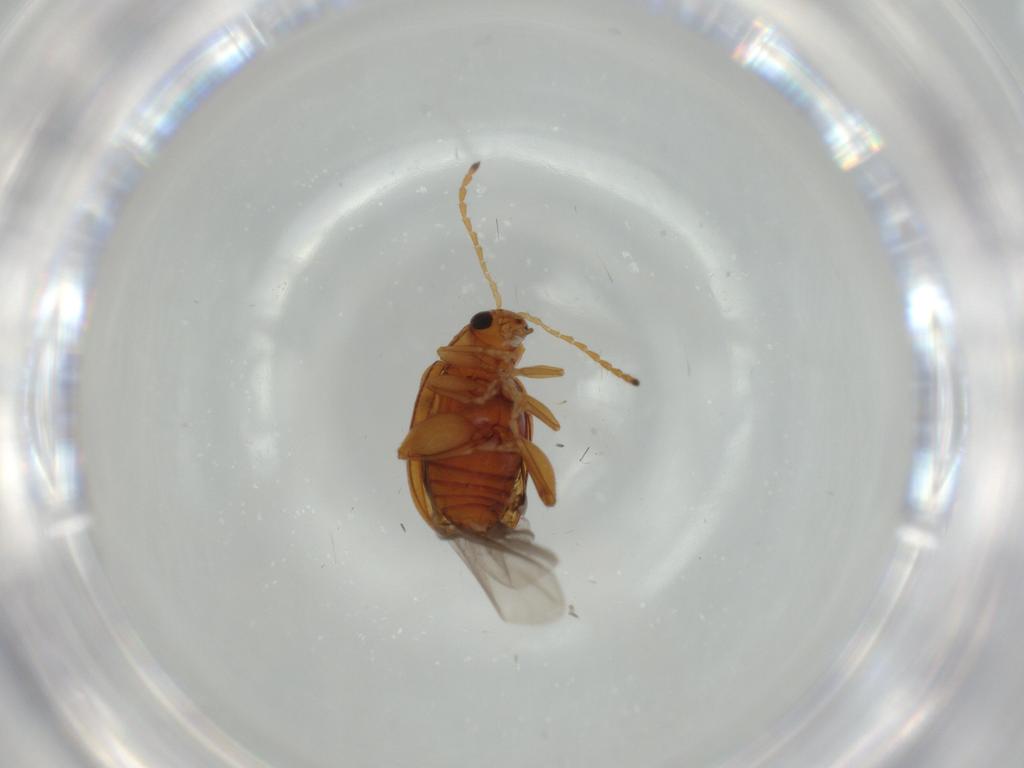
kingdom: Animalia
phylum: Arthropoda
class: Insecta
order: Coleoptera
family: Chrysomelidae
